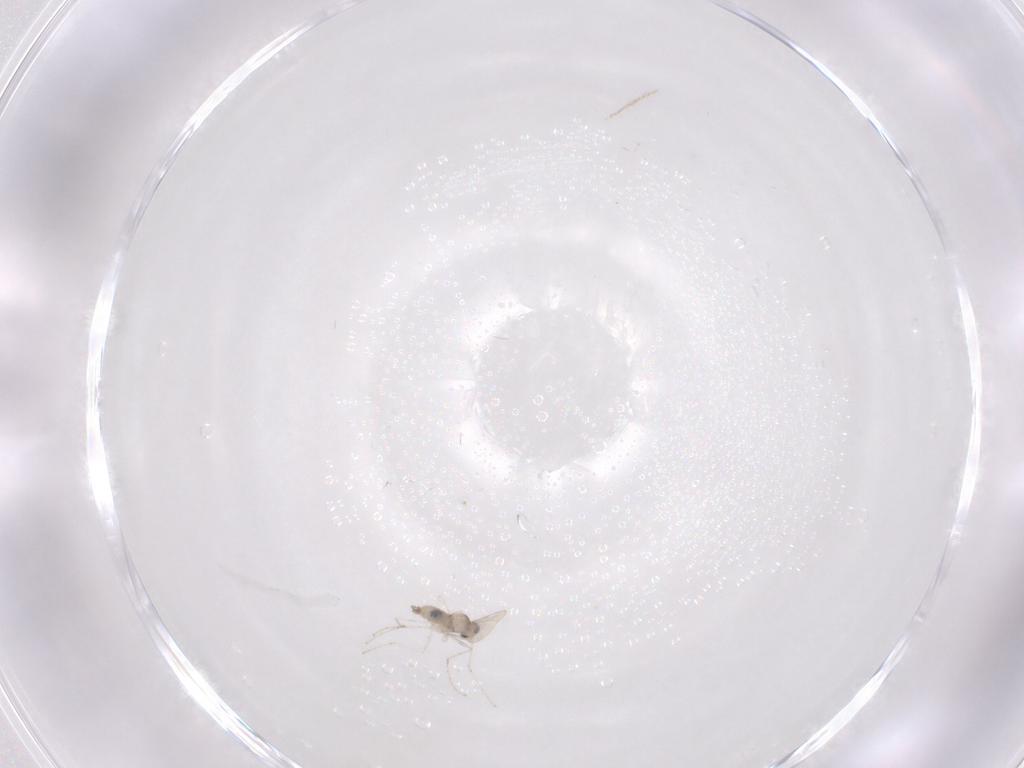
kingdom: Animalia
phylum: Arthropoda
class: Insecta
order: Diptera
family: Cecidomyiidae
